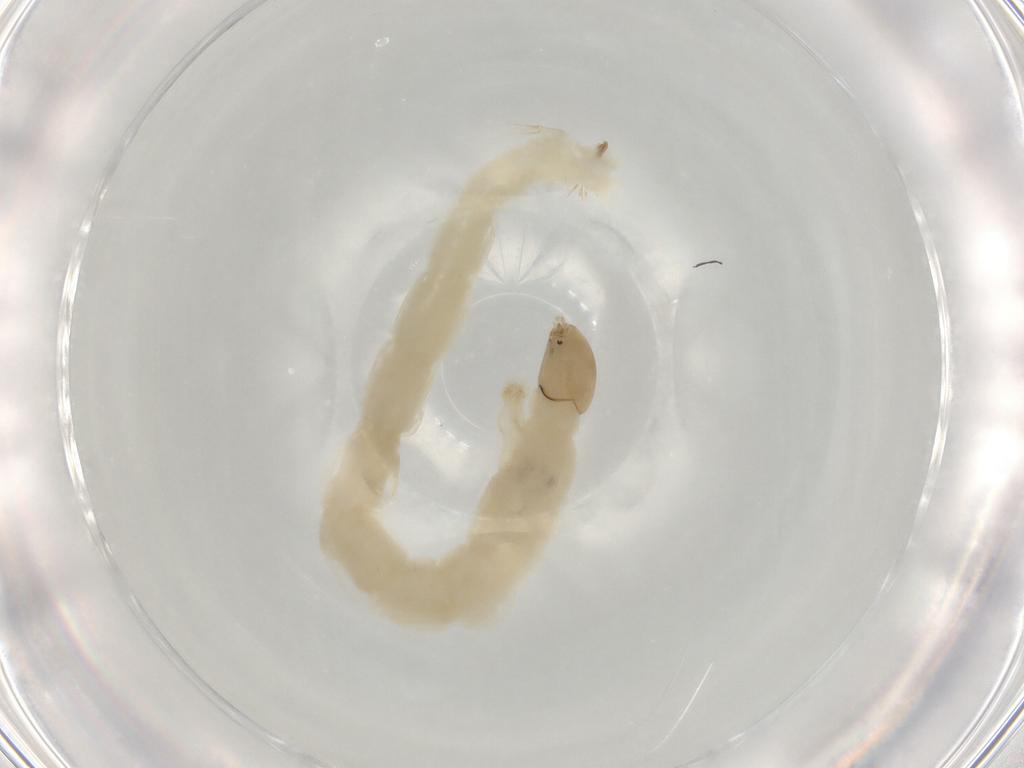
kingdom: Animalia
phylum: Arthropoda
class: Insecta
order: Diptera
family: Chironomidae
